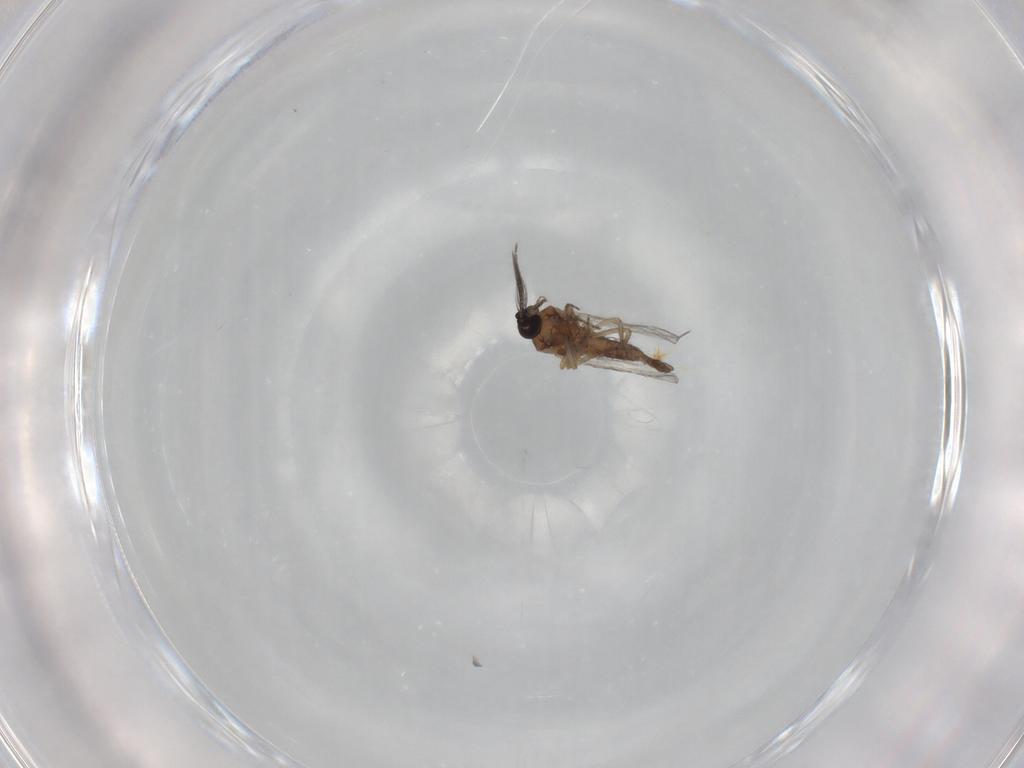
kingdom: Animalia
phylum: Arthropoda
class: Insecta
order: Diptera
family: Ceratopogonidae
